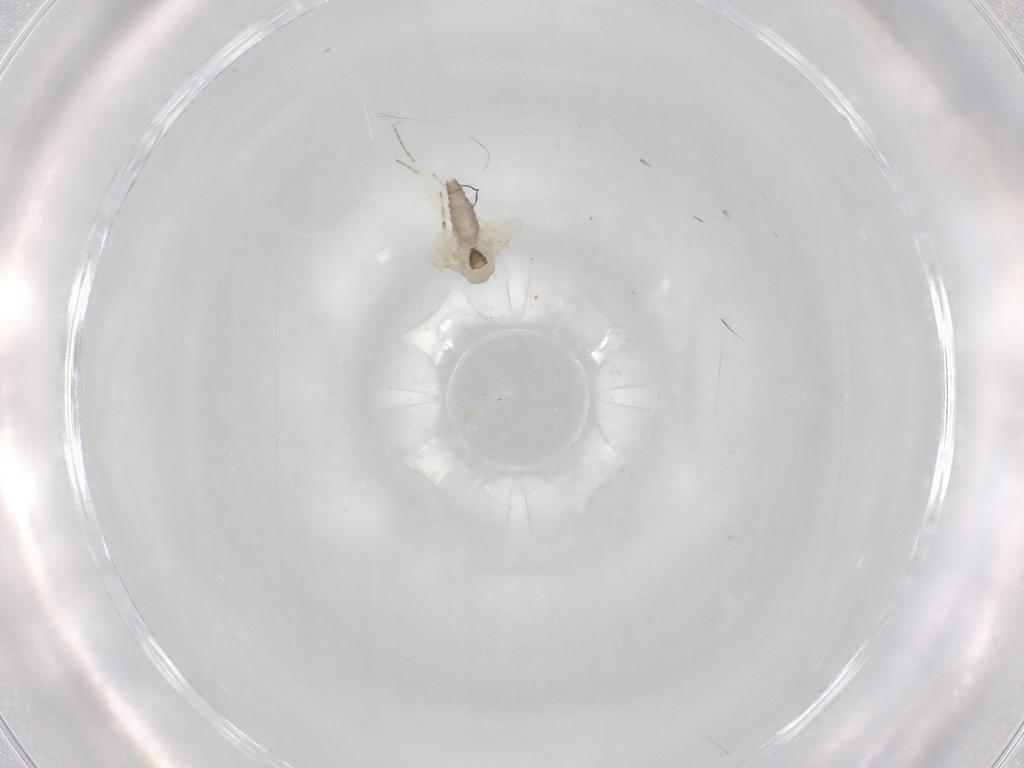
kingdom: Animalia
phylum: Arthropoda
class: Insecta
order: Diptera
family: Ceratopogonidae
